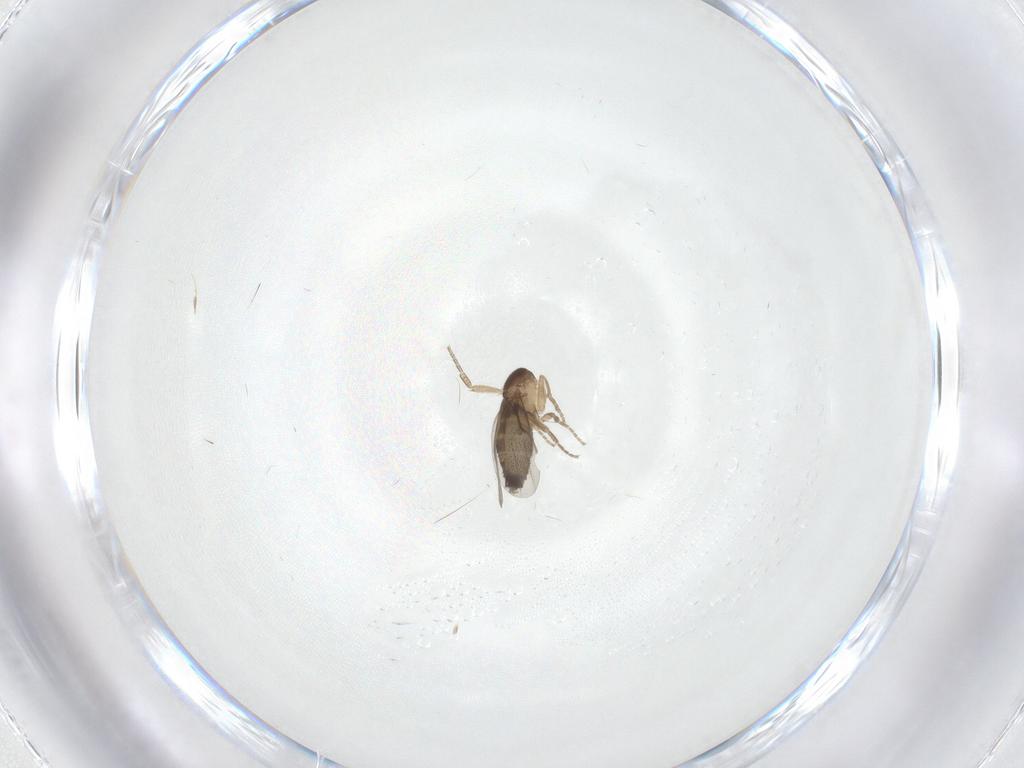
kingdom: Animalia
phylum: Arthropoda
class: Insecta
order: Diptera
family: Phoridae
